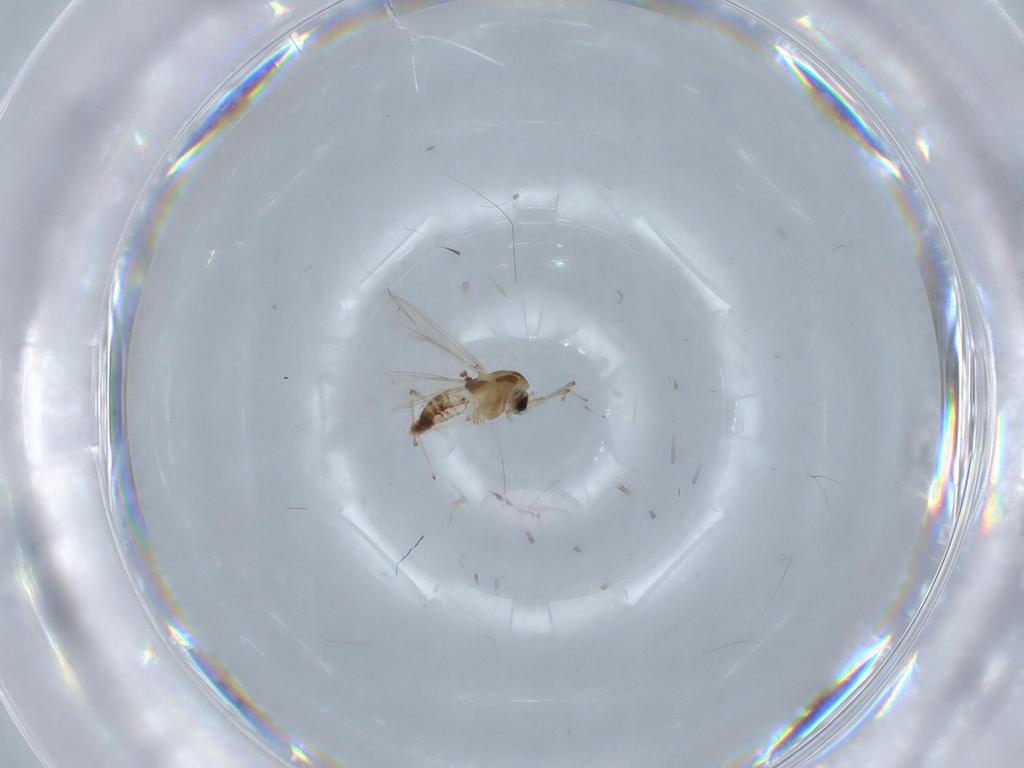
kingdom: Animalia
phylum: Arthropoda
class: Insecta
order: Diptera
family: Chironomidae
